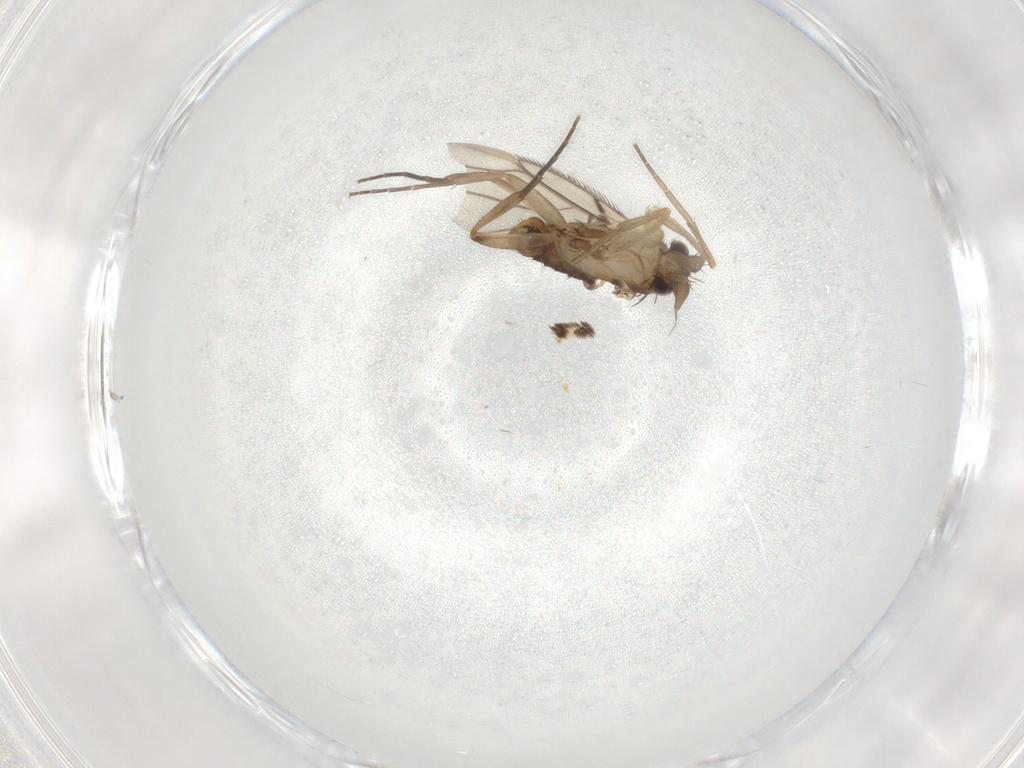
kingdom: Animalia
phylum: Arthropoda
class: Insecta
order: Diptera
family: Phoridae
